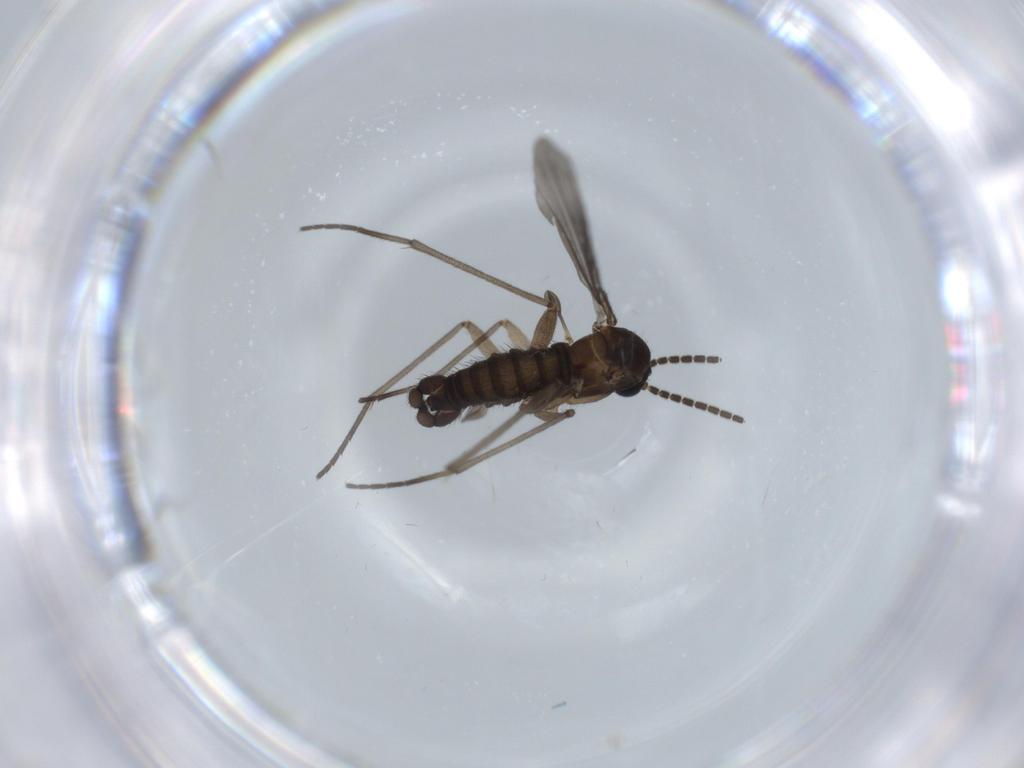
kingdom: Animalia
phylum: Arthropoda
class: Insecta
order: Diptera
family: Sciaridae
